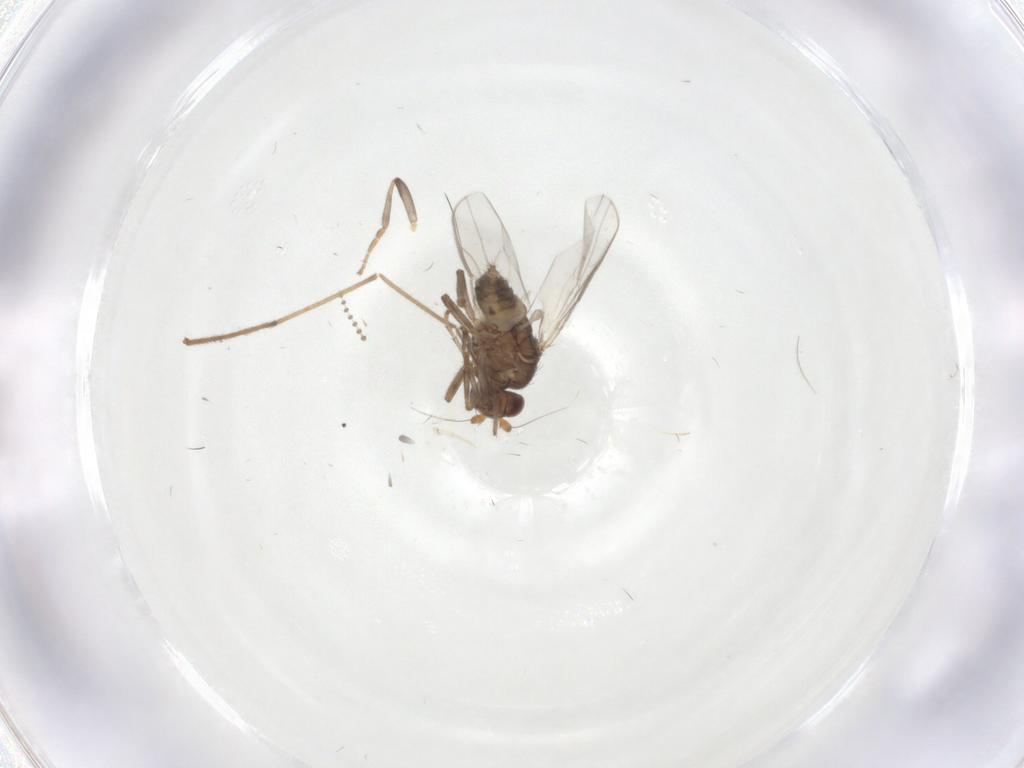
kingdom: Animalia
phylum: Arthropoda
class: Insecta
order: Diptera
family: Sphaeroceridae
